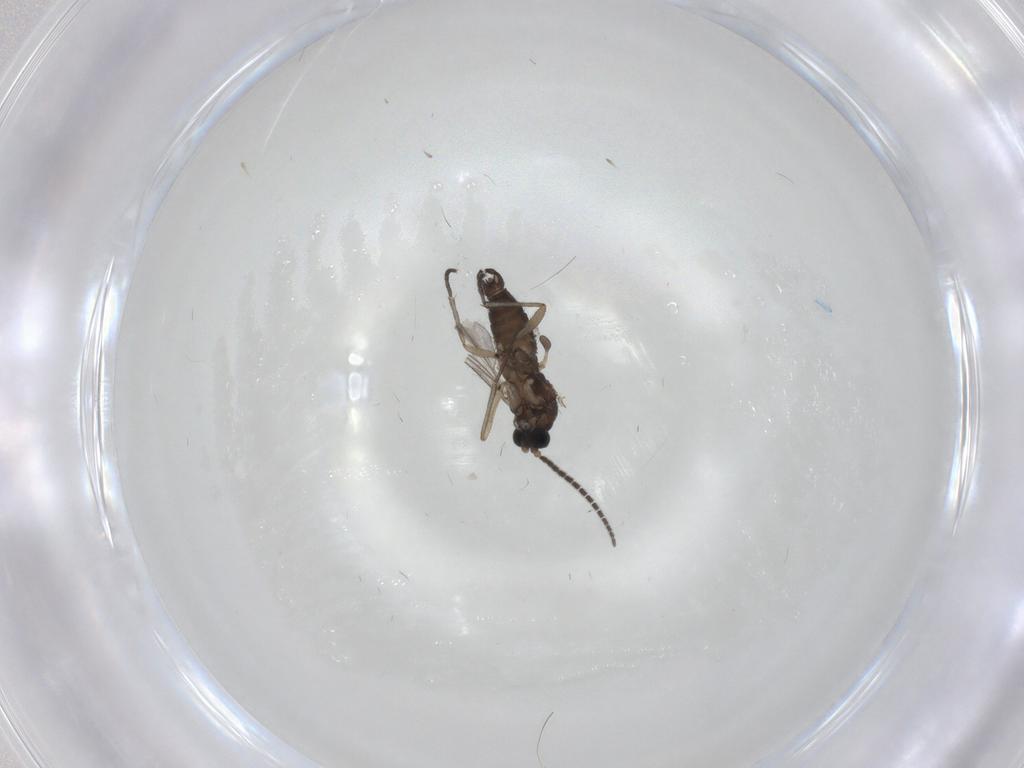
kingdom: Animalia
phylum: Arthropoda
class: Insecta
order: Diptera
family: Sciaridae
